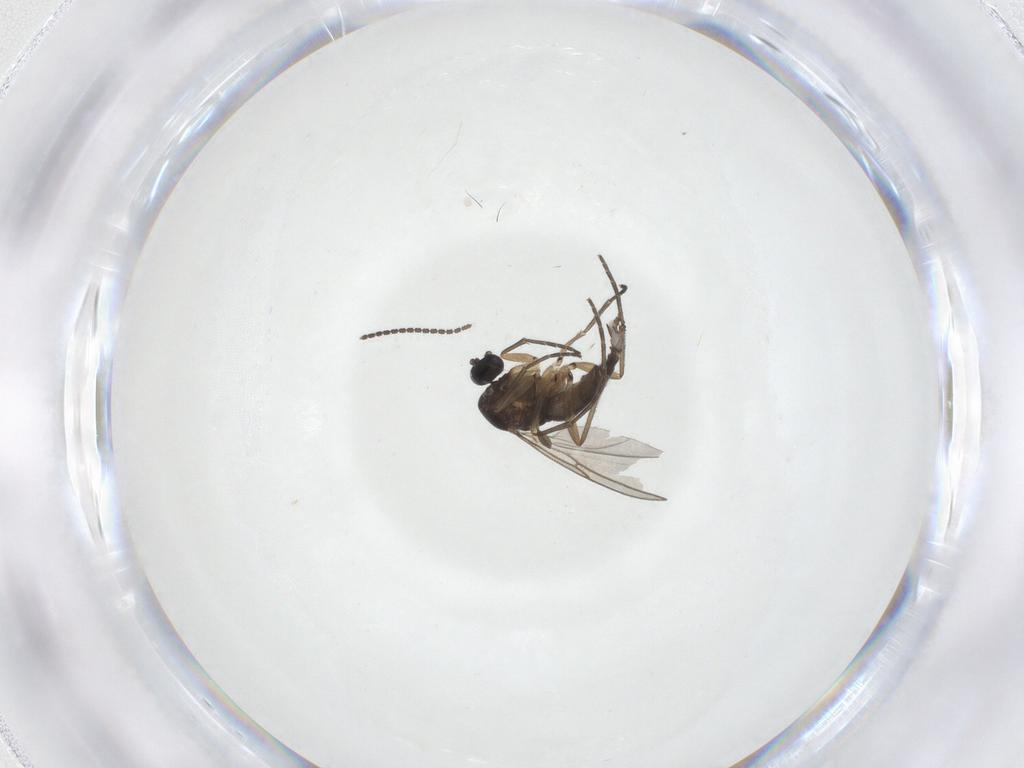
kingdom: Animalia
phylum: Arthropoda
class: Insecta
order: Diptera
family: Sciaridae
